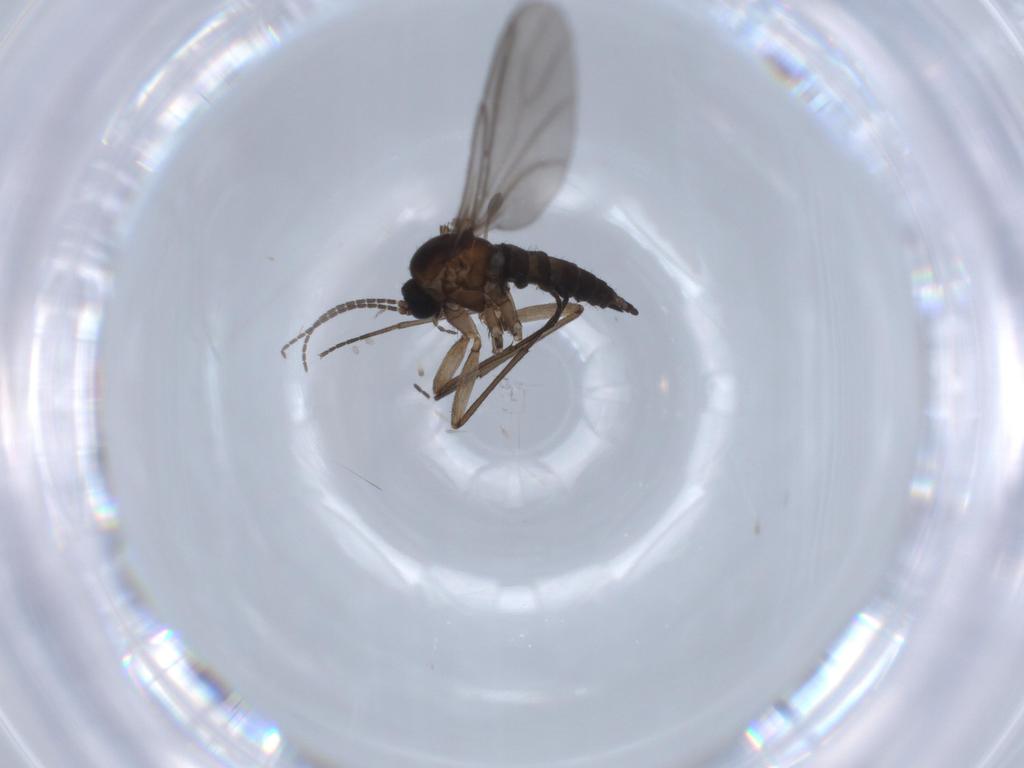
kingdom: Animalia
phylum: Arthropoda
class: Insecta
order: Diptera
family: Sciaridae
